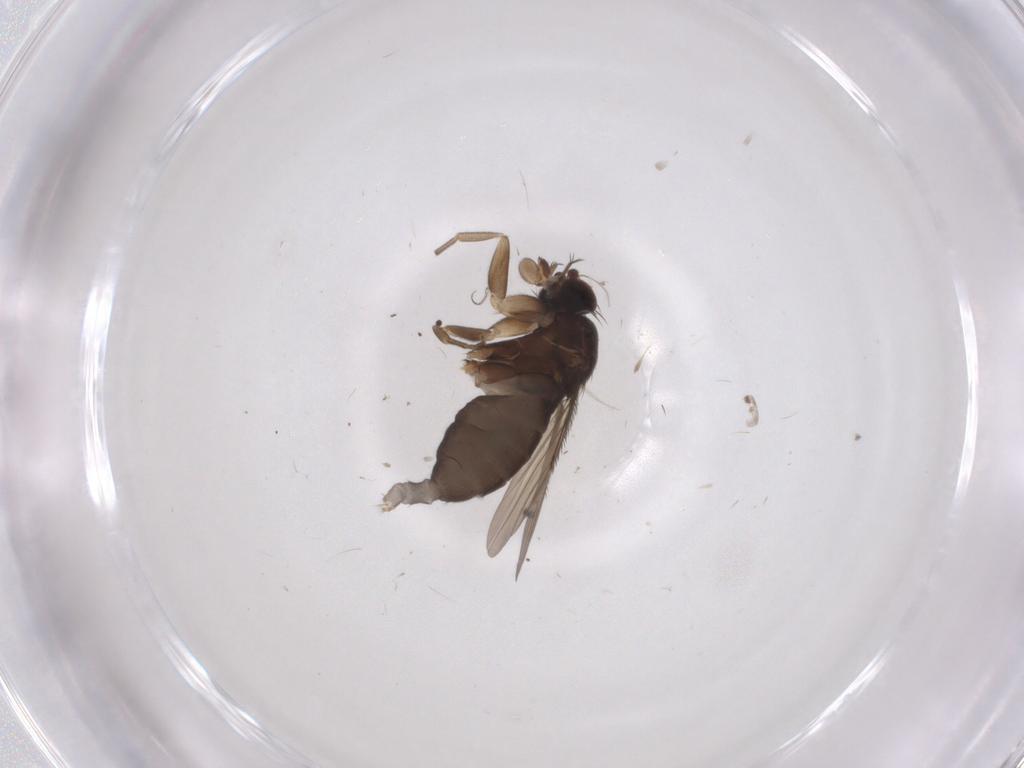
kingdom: Animalia
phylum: Arthropoda
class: Insecta
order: Diptera
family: Phoridae
